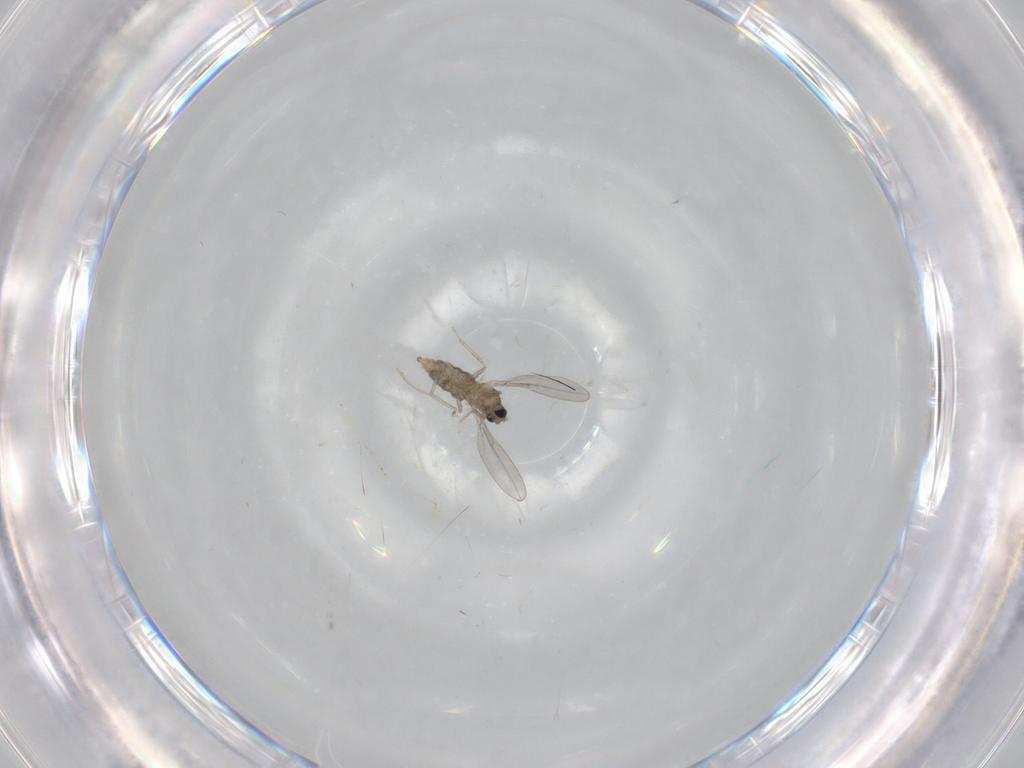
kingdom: Animalia
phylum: Arthropoda
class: Insecta
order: Diptera
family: Cecidomyiidae
